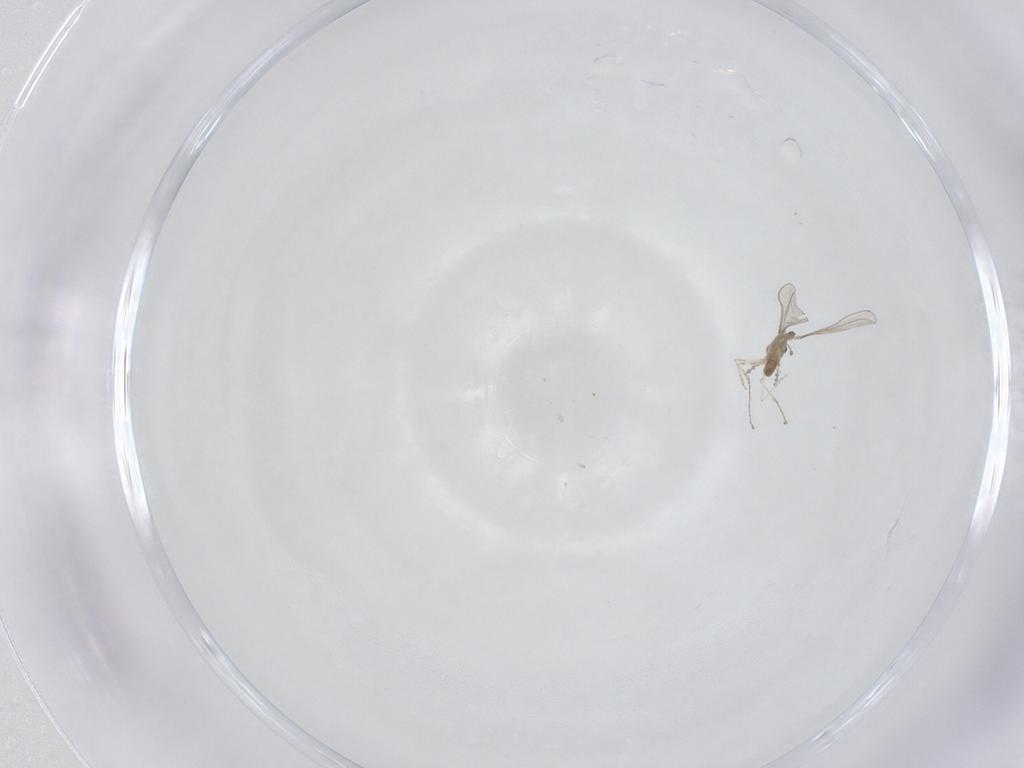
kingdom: Animalia
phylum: Arthropoda
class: Insecta
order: Diptera
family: Cecidomyiidae
